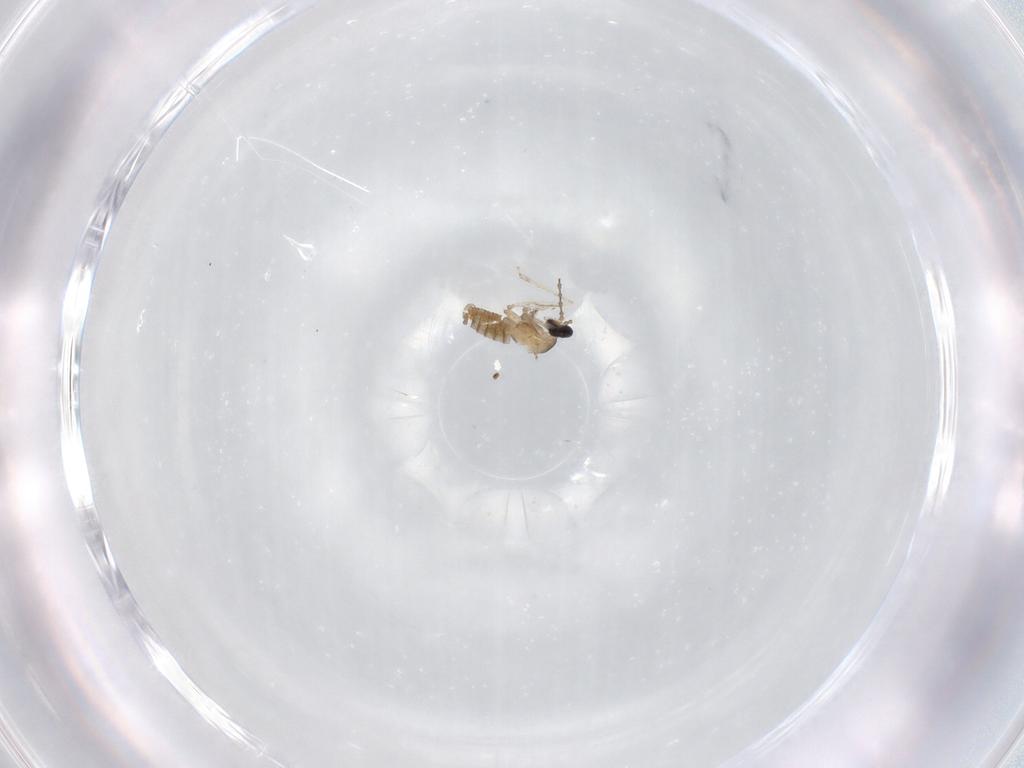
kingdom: Animalia
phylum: Arthropoda
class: Insecta
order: Diptera
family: Cecidomyiidae
